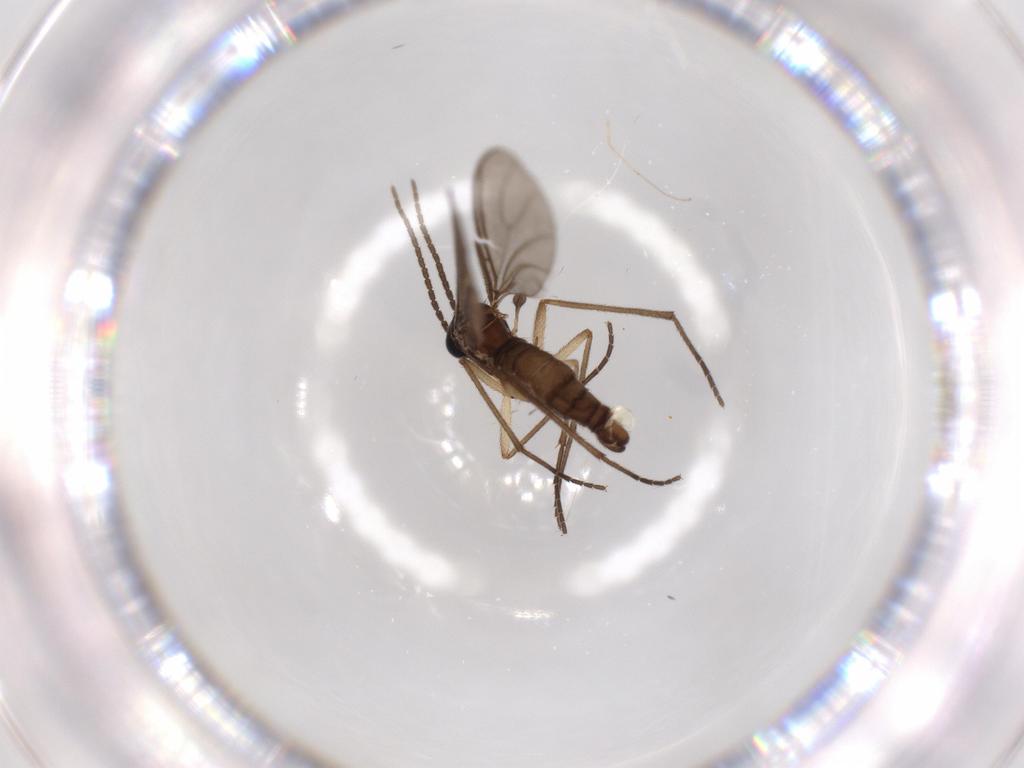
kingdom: Animalia
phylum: Arthropoda
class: Insecta
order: Diptera
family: Sciaridae
